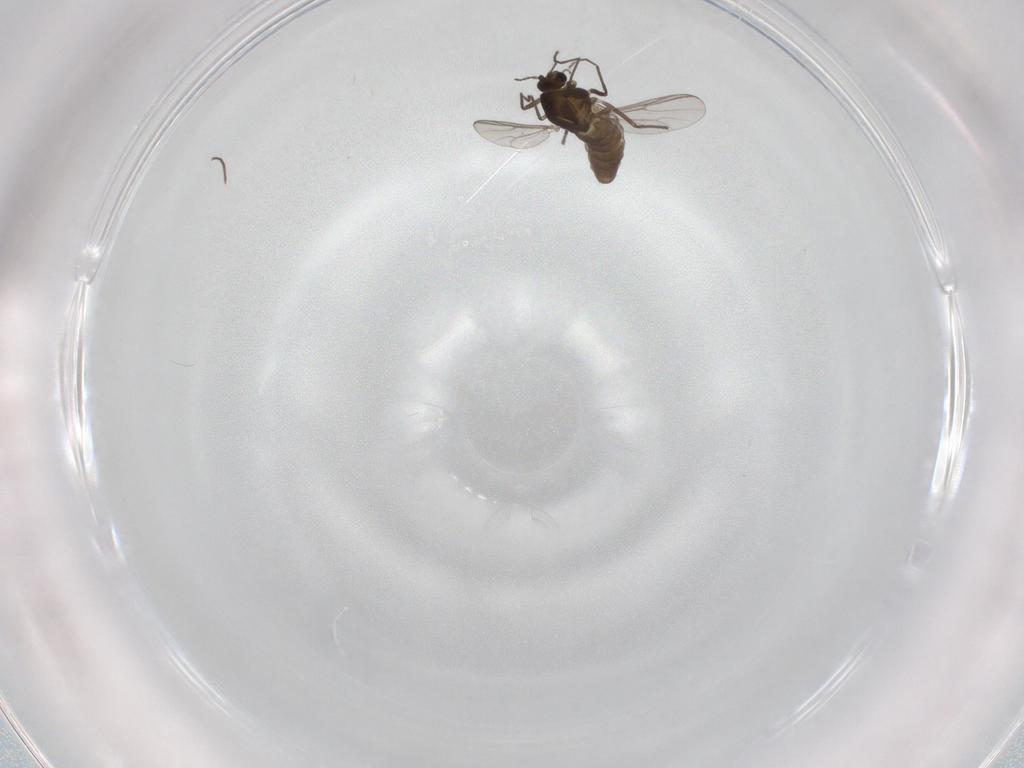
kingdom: Animalia
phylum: Arthropoda
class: Insecta
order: Diptera
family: Chironomidae
